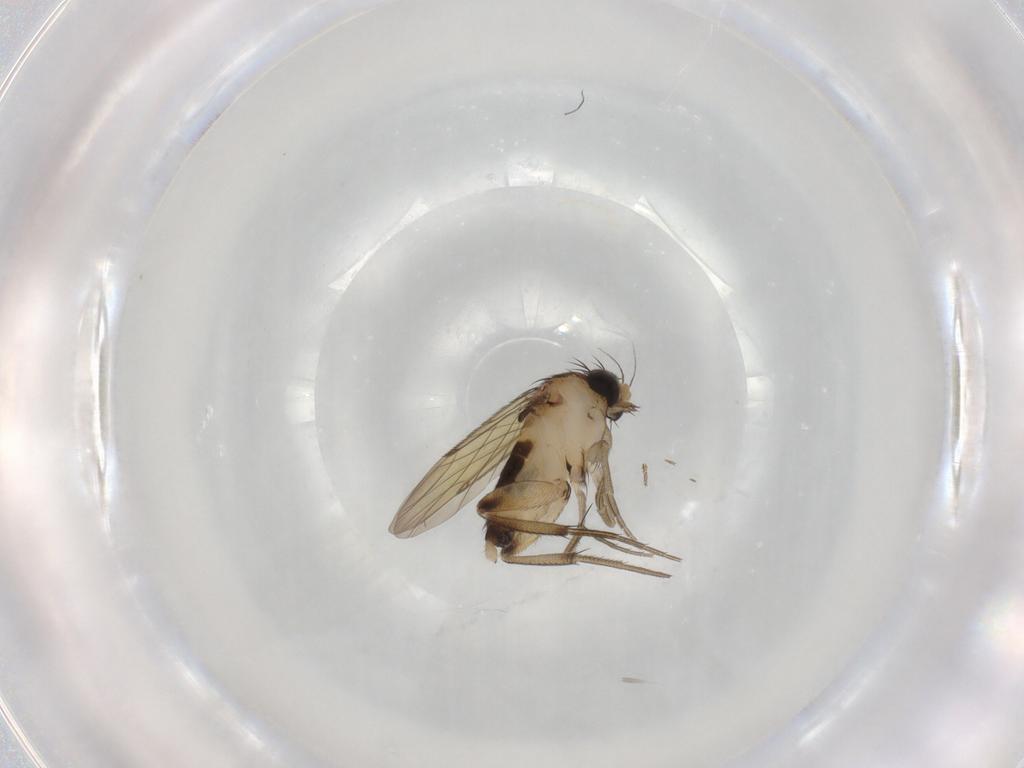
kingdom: Animalia
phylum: Arthropoda
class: Insecta
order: Diptera
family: Phoridae
